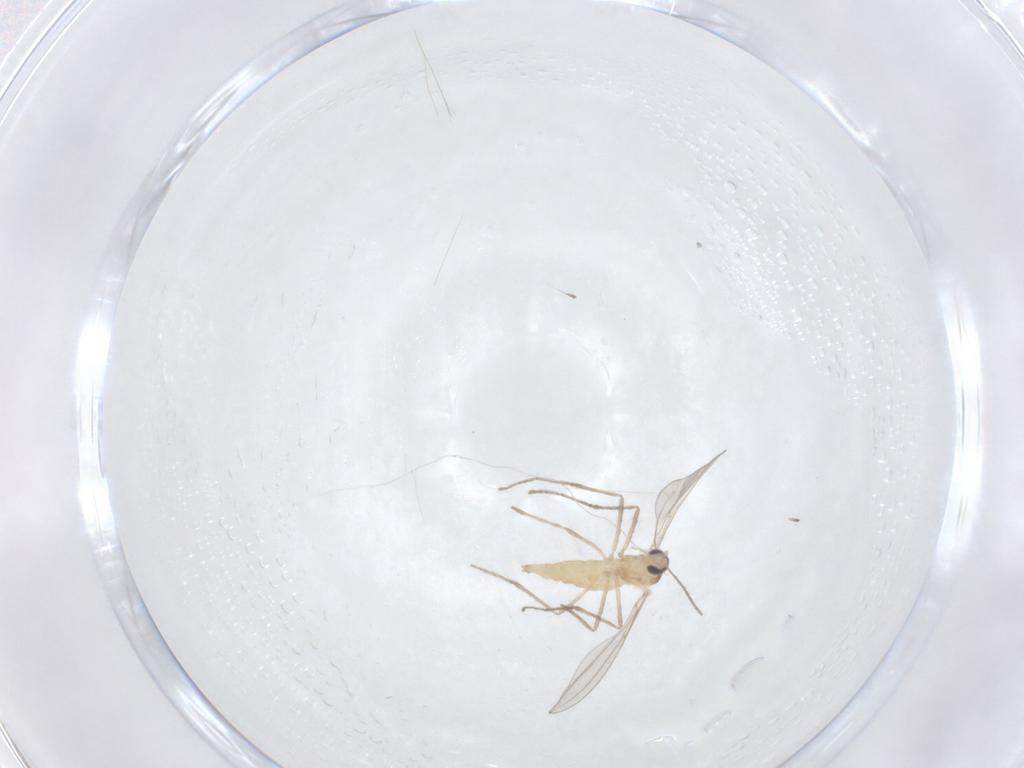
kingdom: Animalia
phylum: Arthropoda
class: Insecta
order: Diptera
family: Cecidomyiidae
